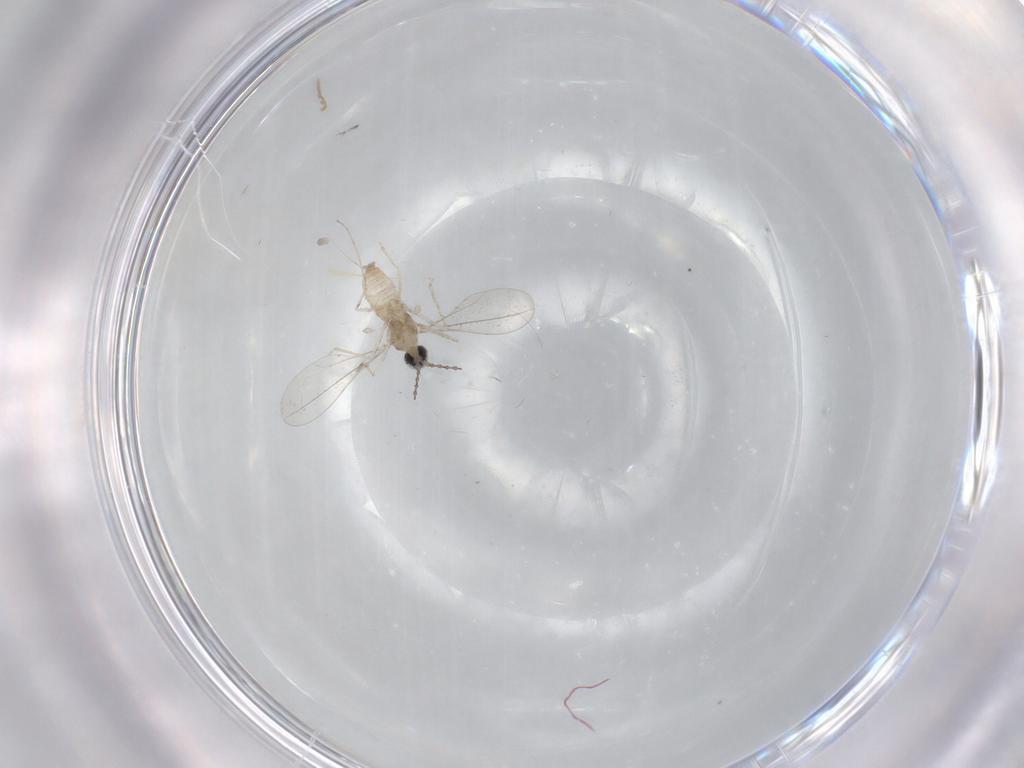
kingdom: Animalia
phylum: Arthropoda
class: Insecta
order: Diptera
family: Cecidomyiidae
